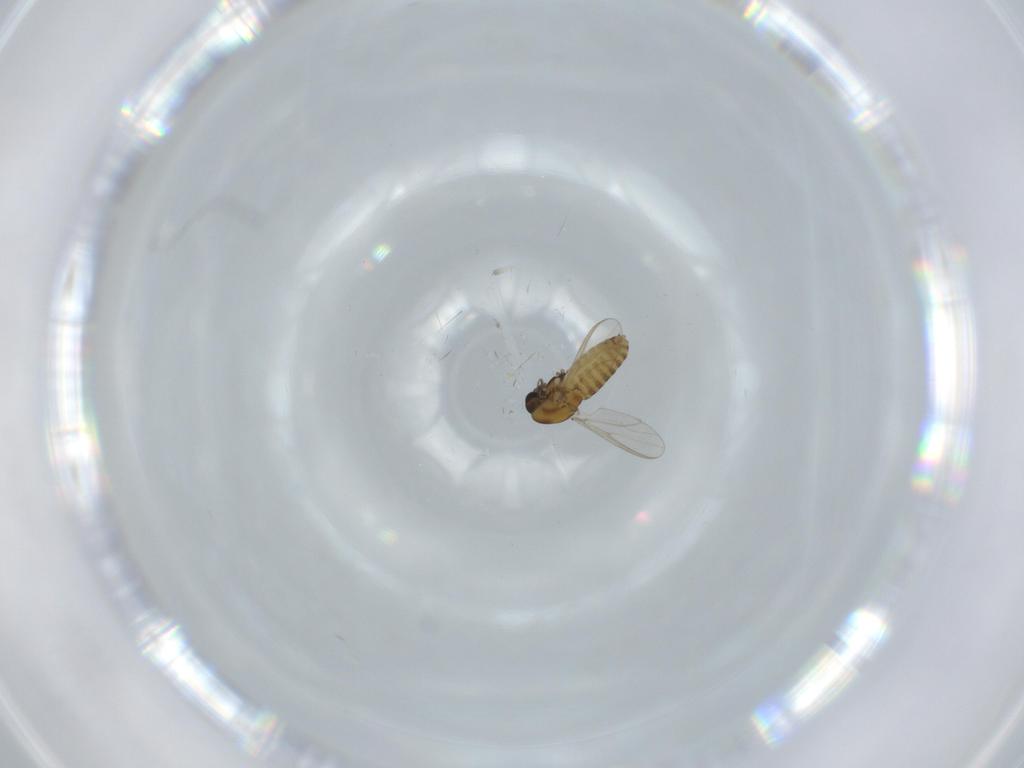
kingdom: Animalia
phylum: Arthropoda
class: Insecta
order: Diptera
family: Chironomidae
